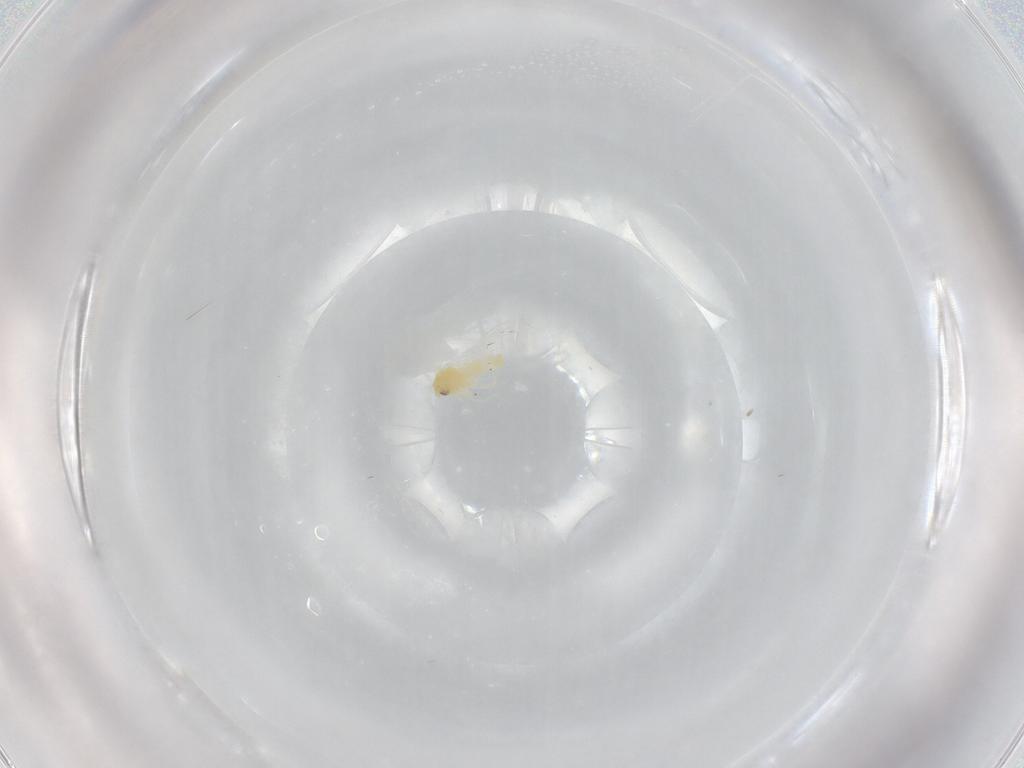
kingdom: Animalia
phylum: Arthropoda
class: Insecta
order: Hemiptera
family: Aleyrodidae
